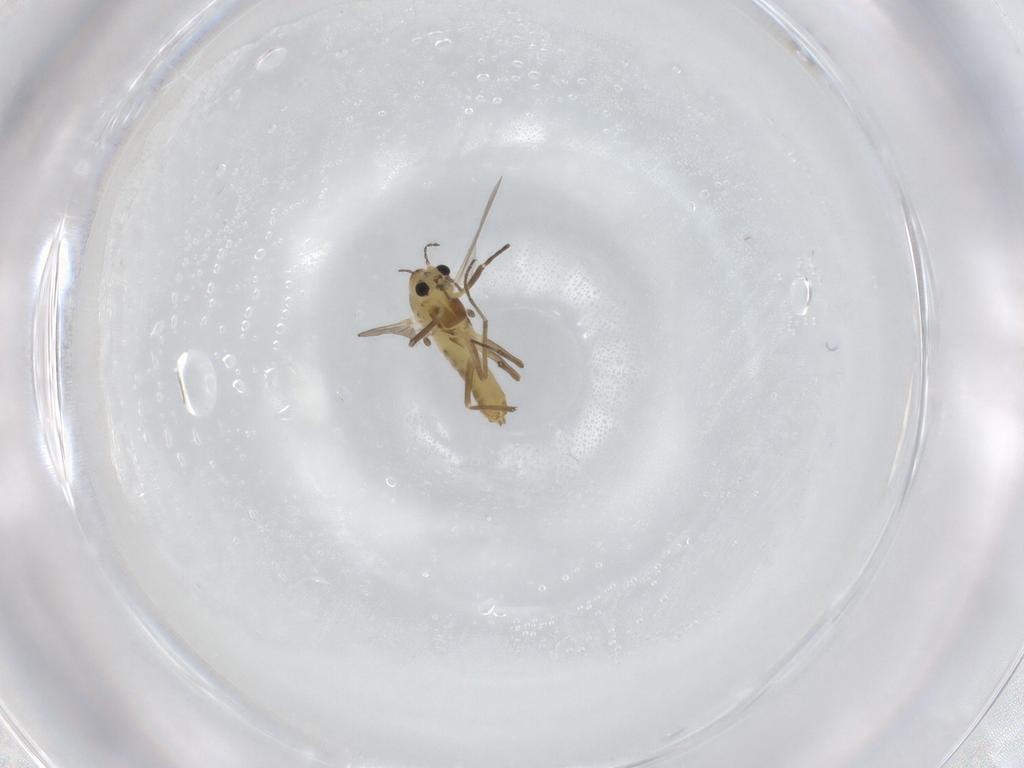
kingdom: Animalia
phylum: Arthropoda
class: Insecta
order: Diptera
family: Chironomidae
